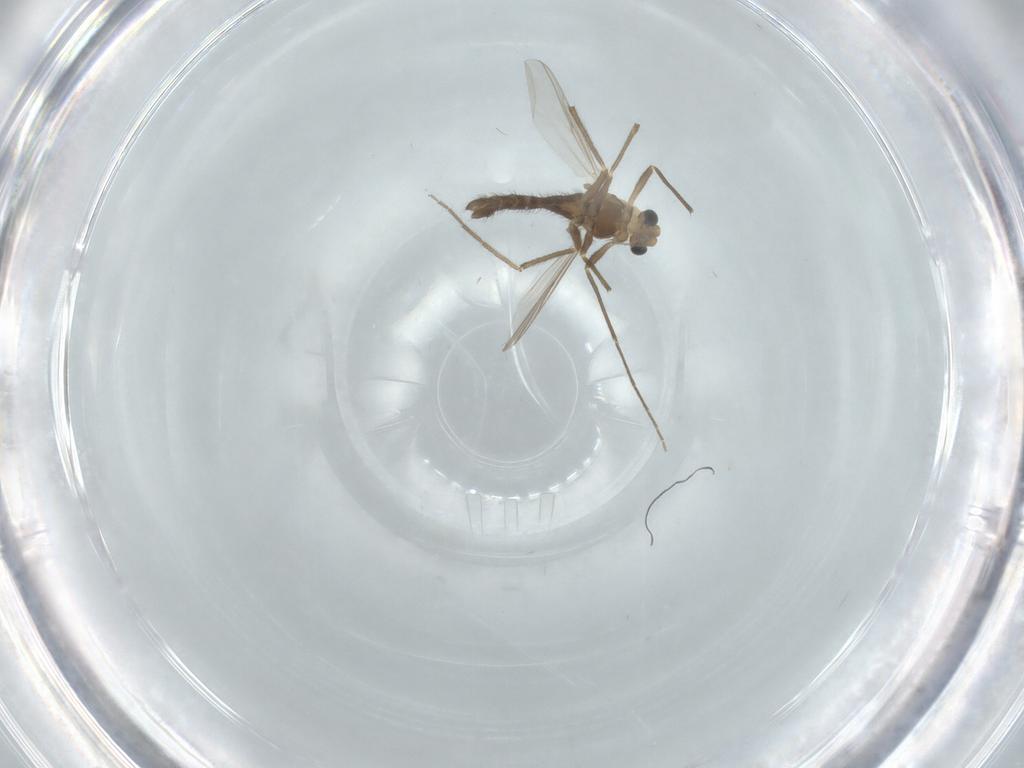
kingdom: Animalia
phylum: Arthropoda
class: Insecta
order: Diptera
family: Chironomidae
